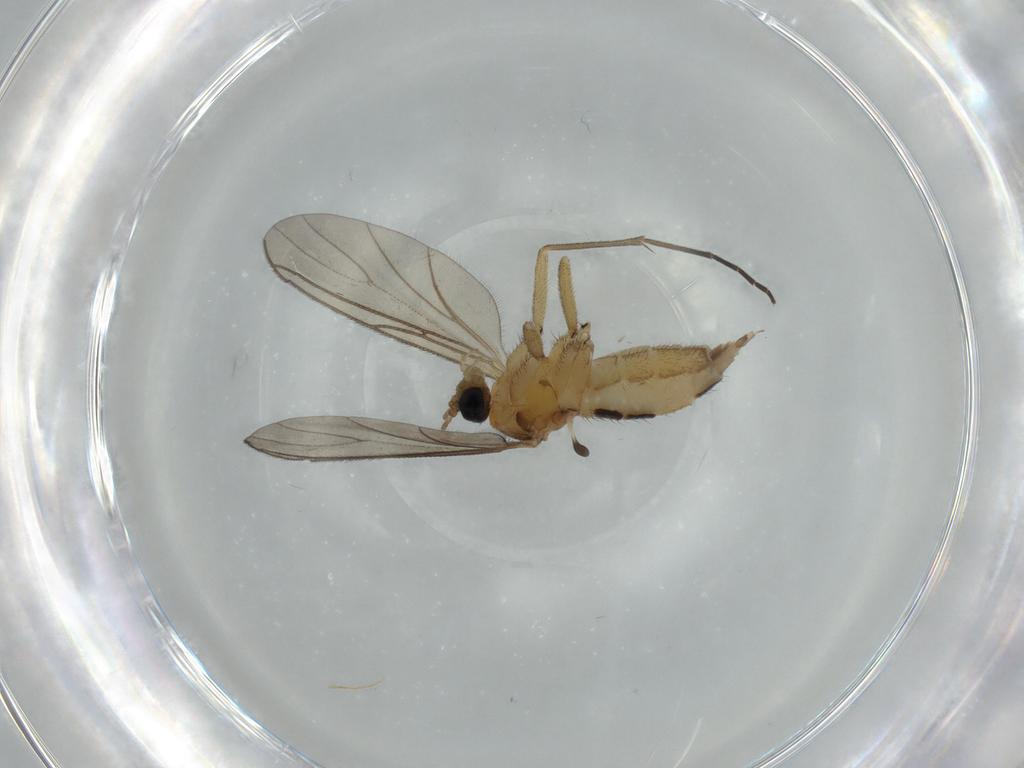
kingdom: Animalia
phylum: Arthropoda
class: Insecta
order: Diptera
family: Sciaridae
